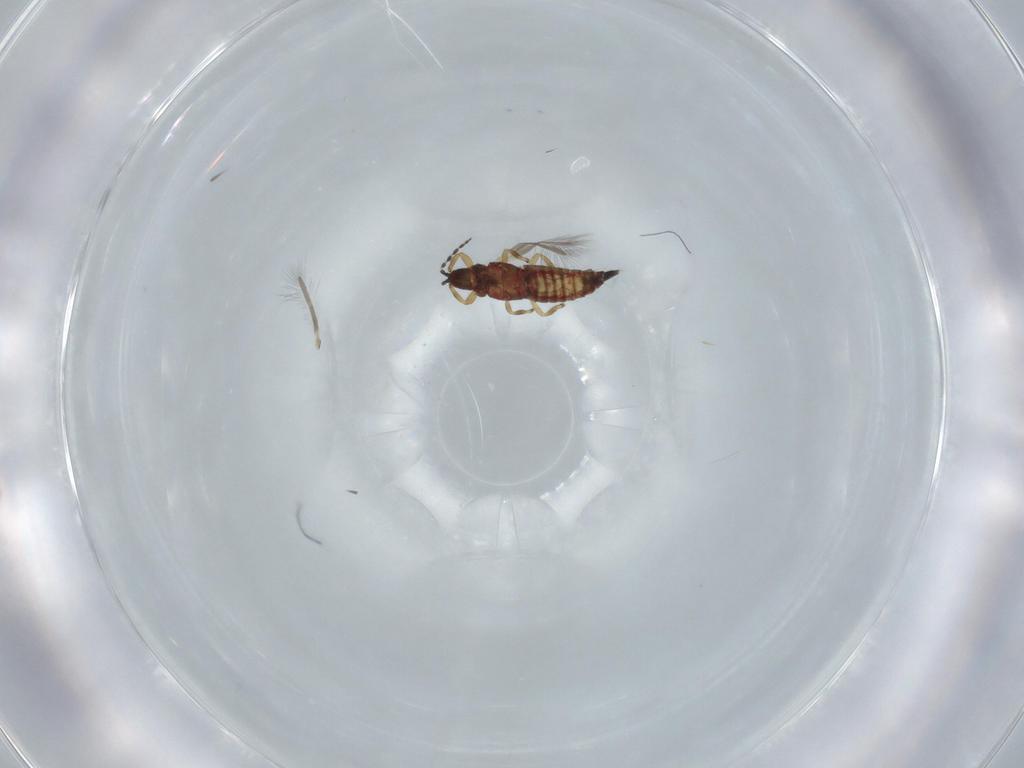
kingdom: Animalia
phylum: Arthropoda
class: Insecta
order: Thysanoptera
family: Phlaeothripidae
